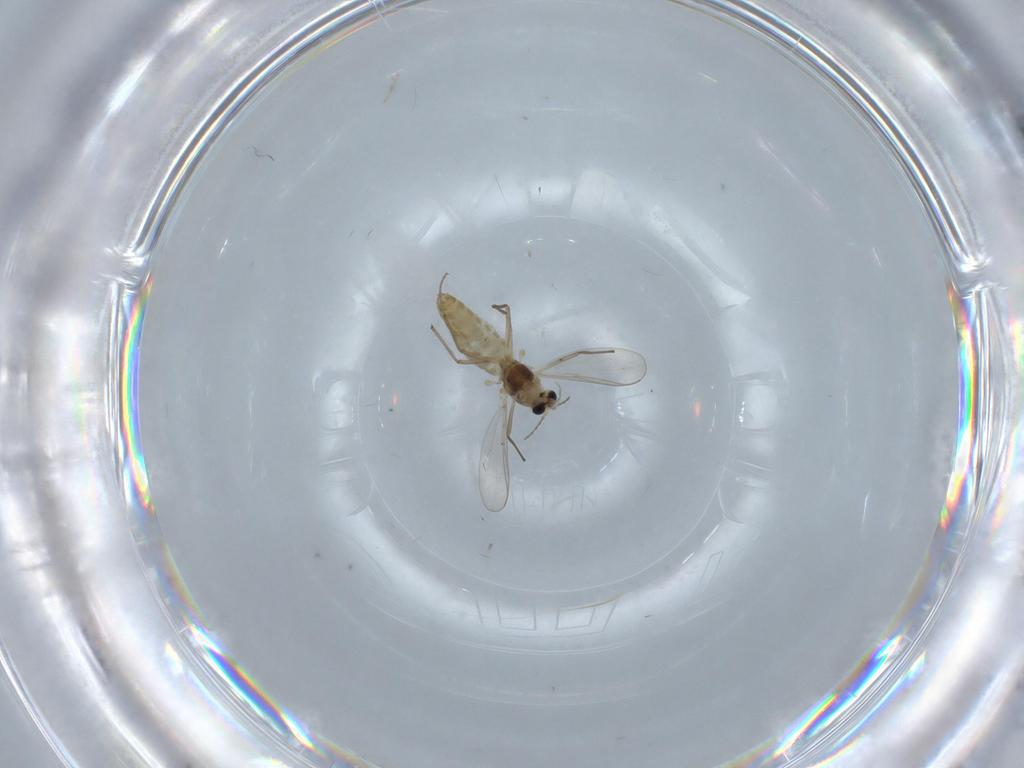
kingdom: Animalia
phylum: Arthropoda
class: Insecta
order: Diptera
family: Chironomidae
